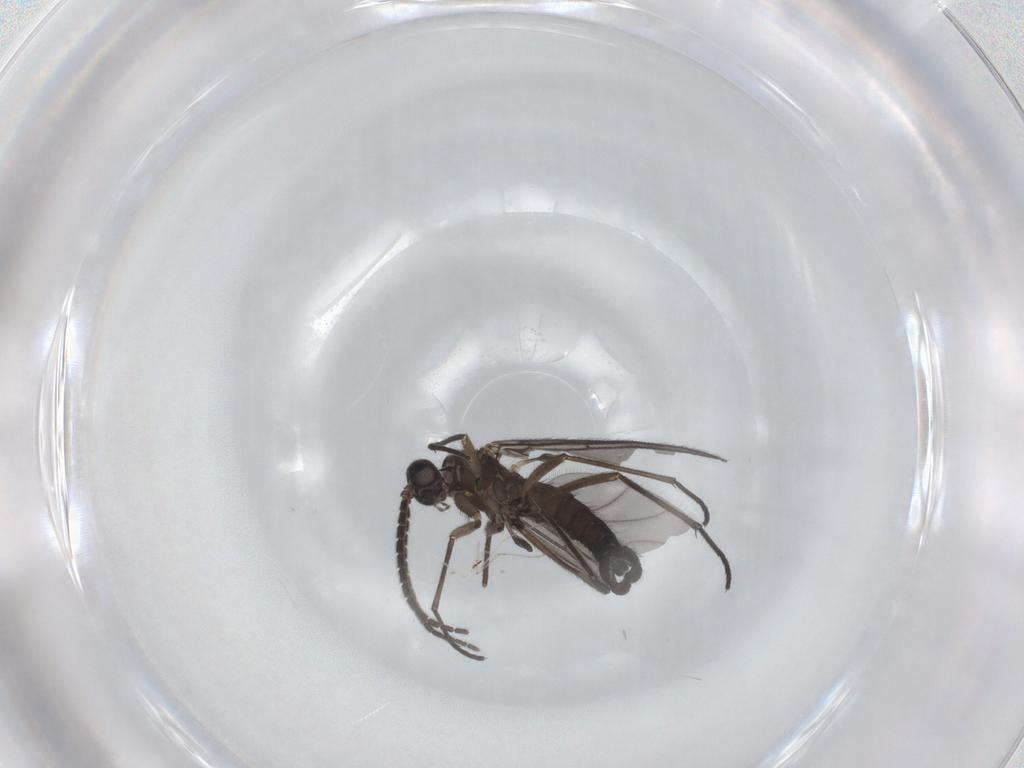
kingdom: Animalia
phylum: Arthropoda
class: Insecta
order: Diptera
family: Sciaridae
